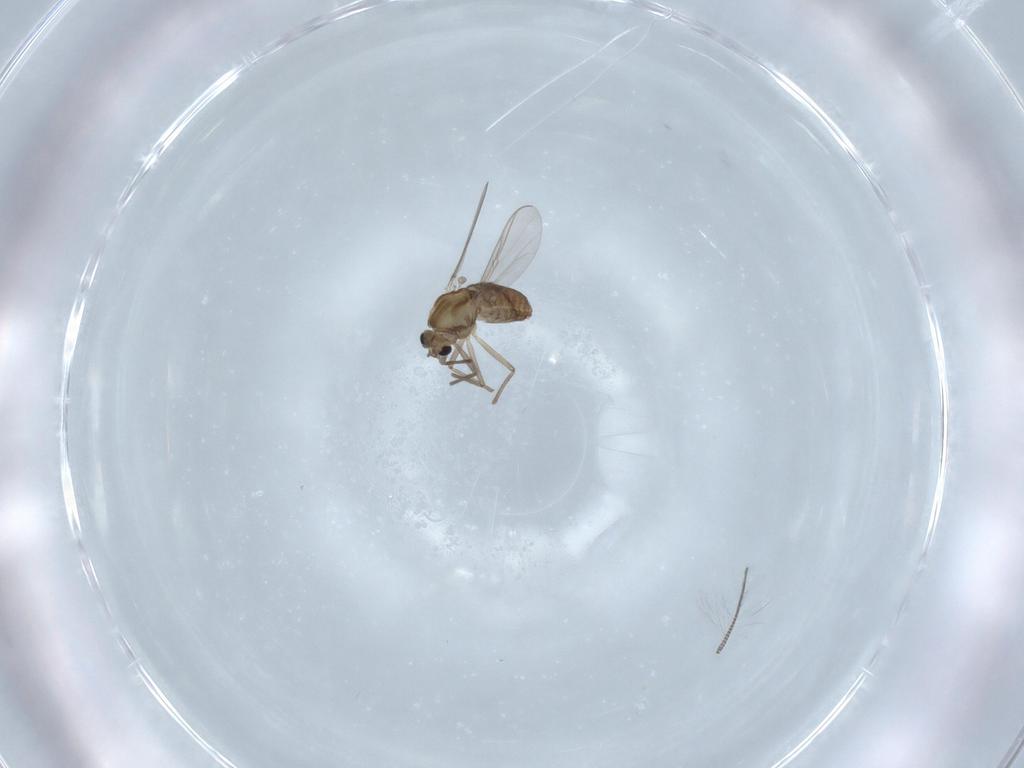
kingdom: Animalia
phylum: Arthropoda
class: Insecta
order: Diptera
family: Chironomidae
